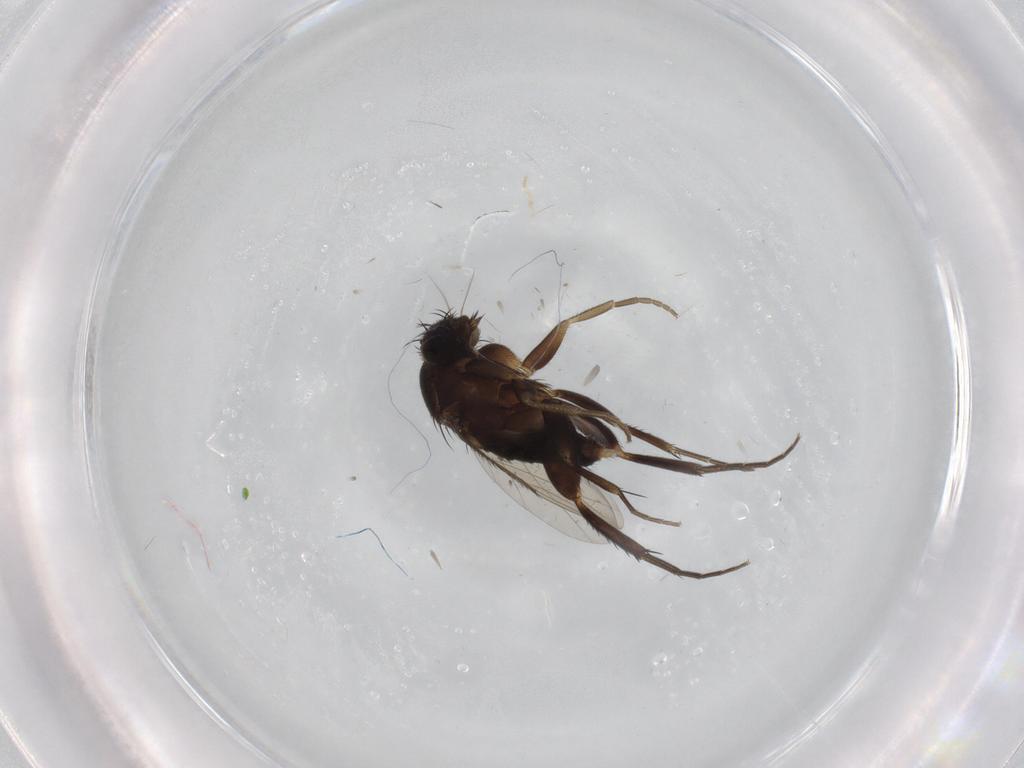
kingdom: Animalia
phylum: Arthropoda
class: Insecta
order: Diptera
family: Phoridae
